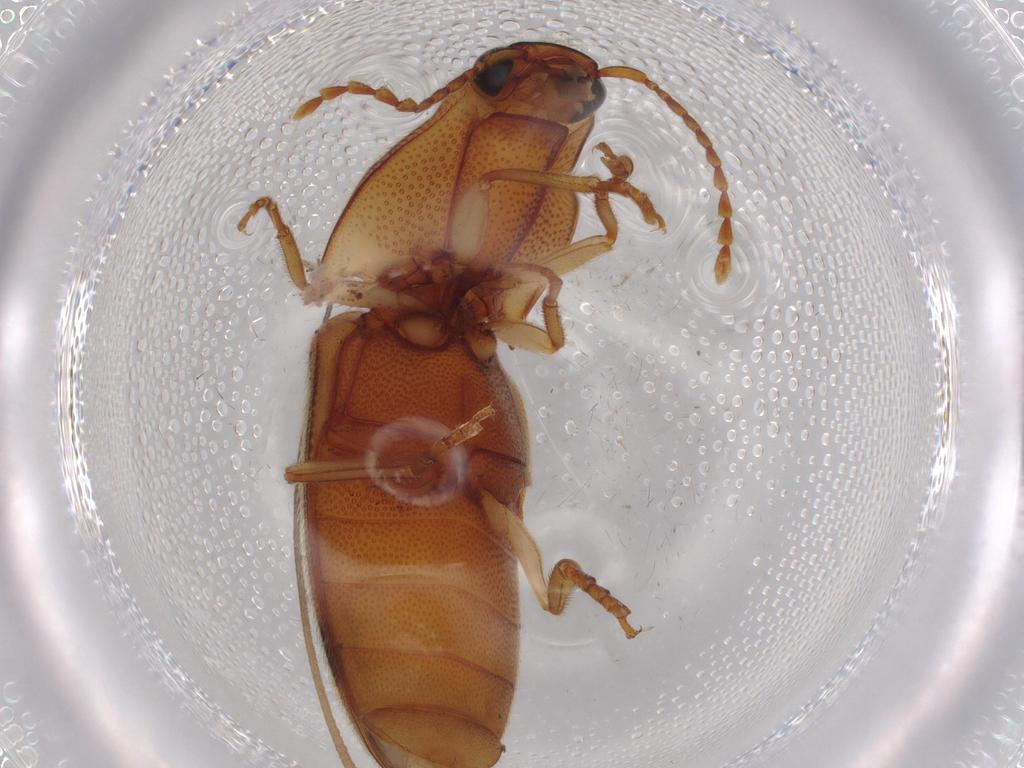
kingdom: Animalia
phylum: Arthropoda
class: Insecta
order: Coleoptera
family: Elateridae
